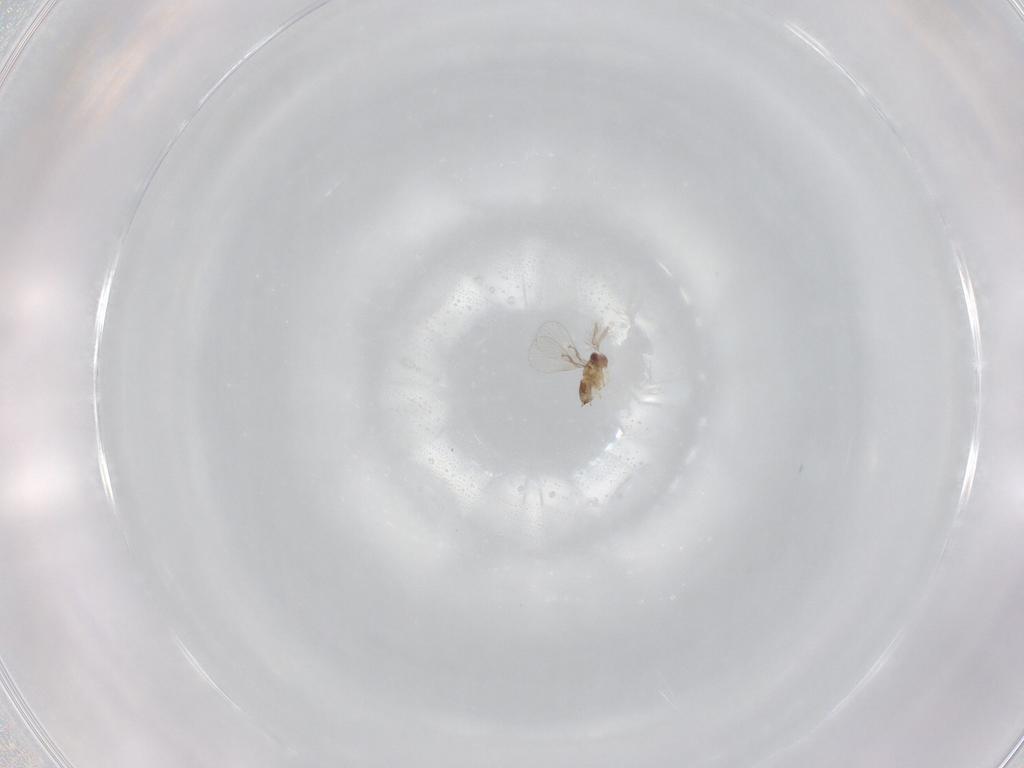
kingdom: Animalia
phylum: Arthropoda
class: Insecta
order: Hymenoptera
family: Trichogrammatidae
